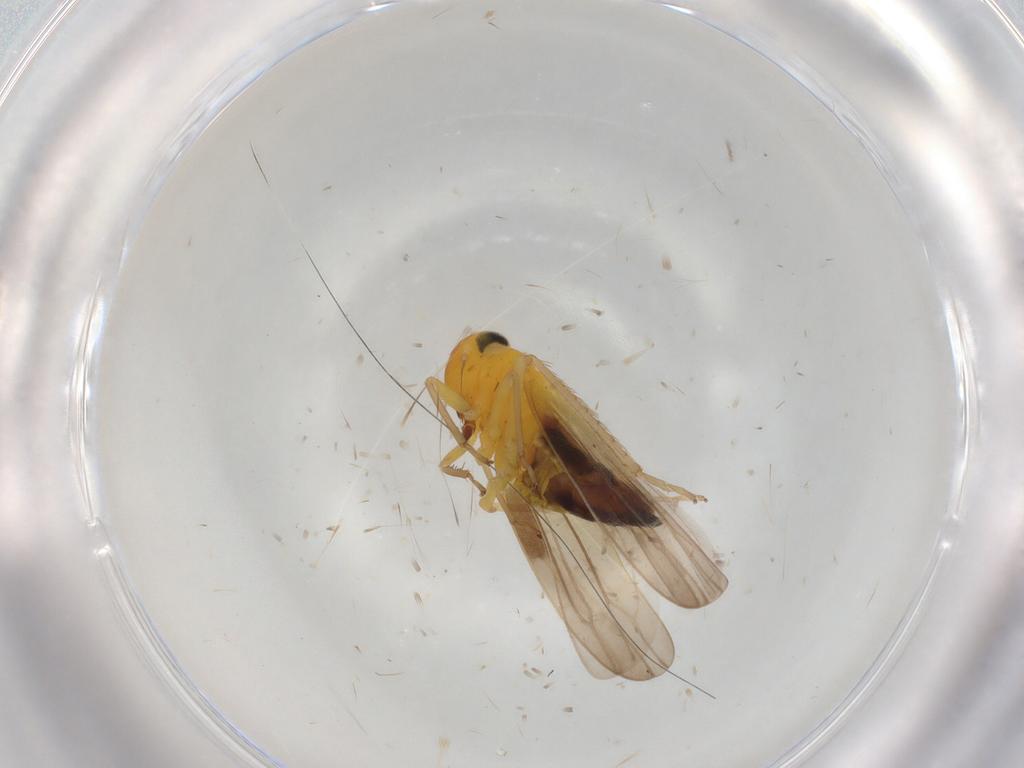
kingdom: Animalia
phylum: Arthropoda
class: Insecta
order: Hemiptera
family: Cicadellidae
